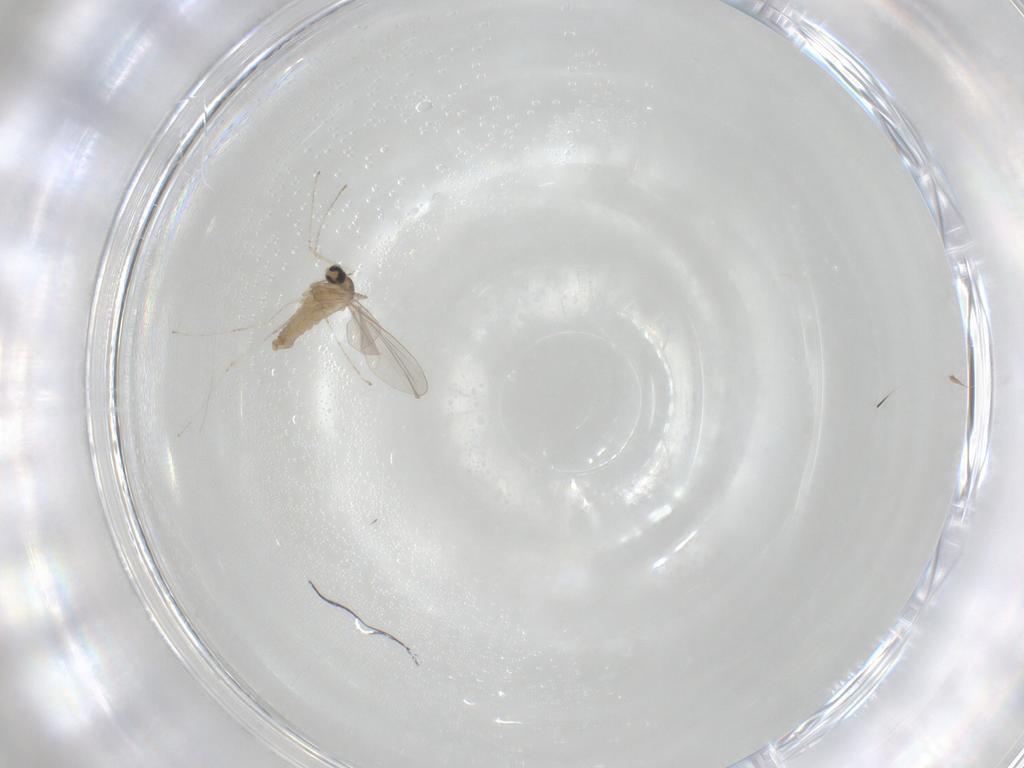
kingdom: Animalia
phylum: Arthropoda
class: Insecta
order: Diptera
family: Cecidomyiidae
